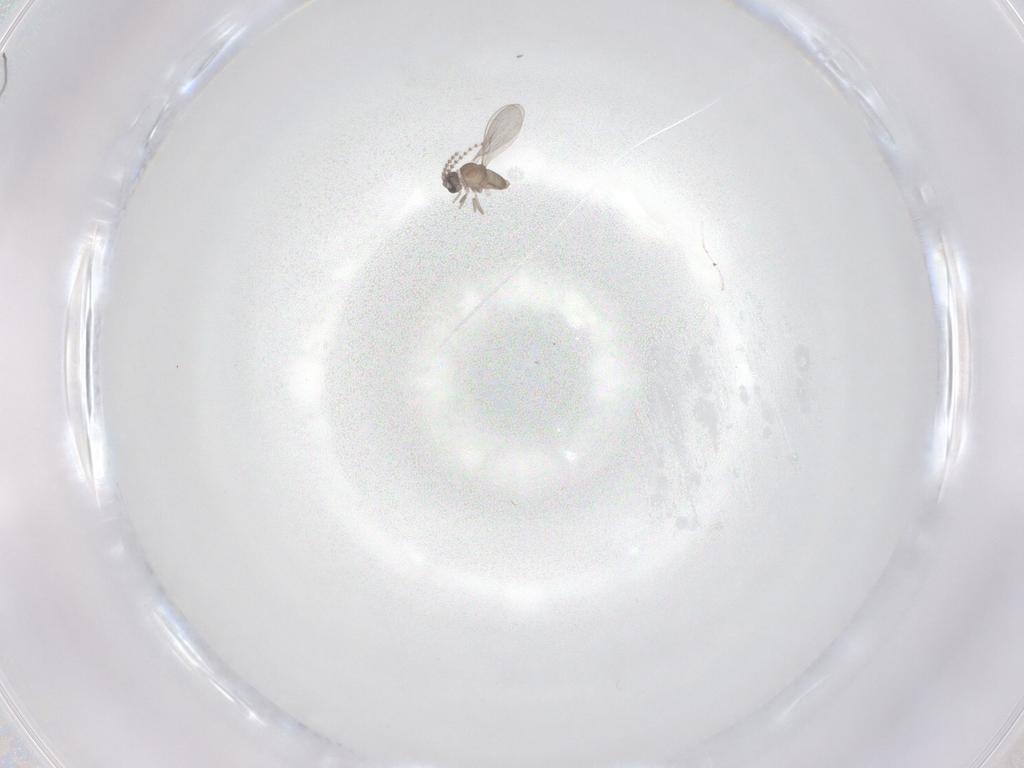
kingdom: Animalia
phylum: Arthropoda
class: Insecta
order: Diptera
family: Cecidomyiidae
